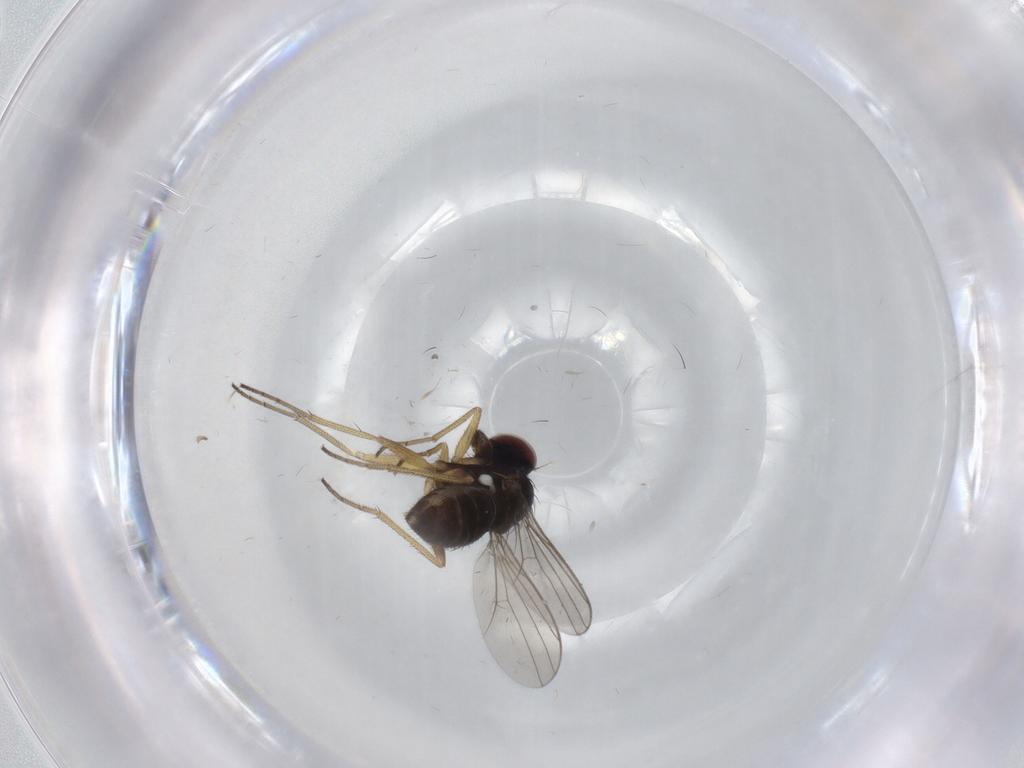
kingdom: Animalia
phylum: Arthropoda
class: Insecta
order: Diptera
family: Dolichopodidae
